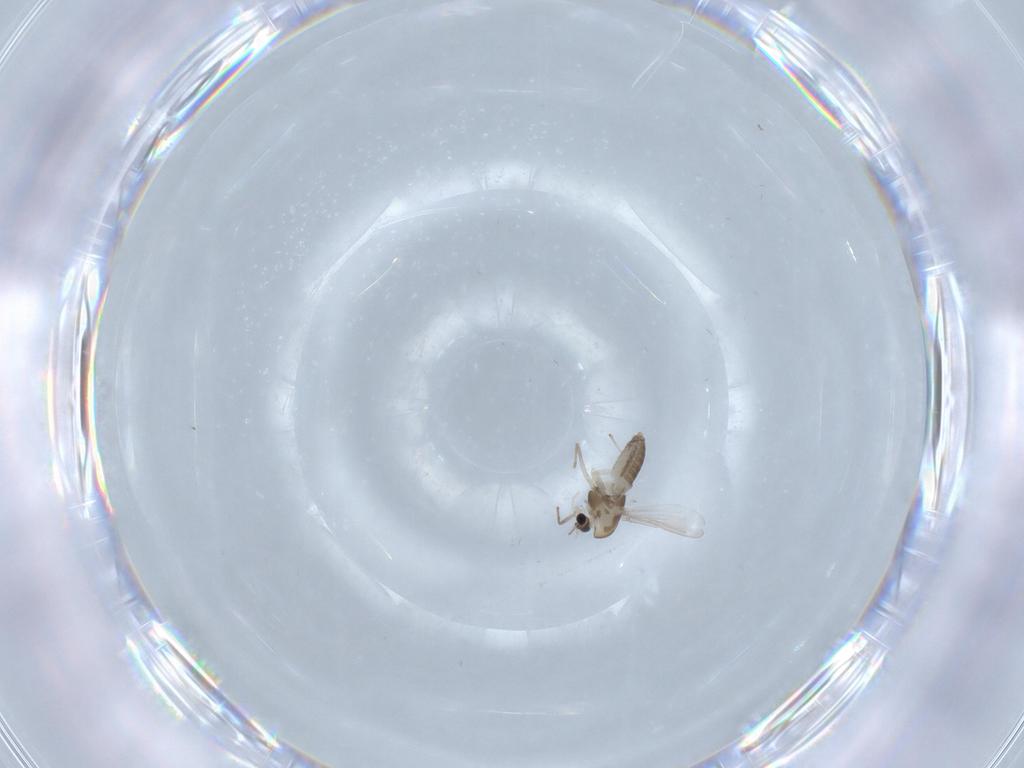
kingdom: Animalia
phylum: Arthropoda
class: Insecta
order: Diptera
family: Chironomidae
